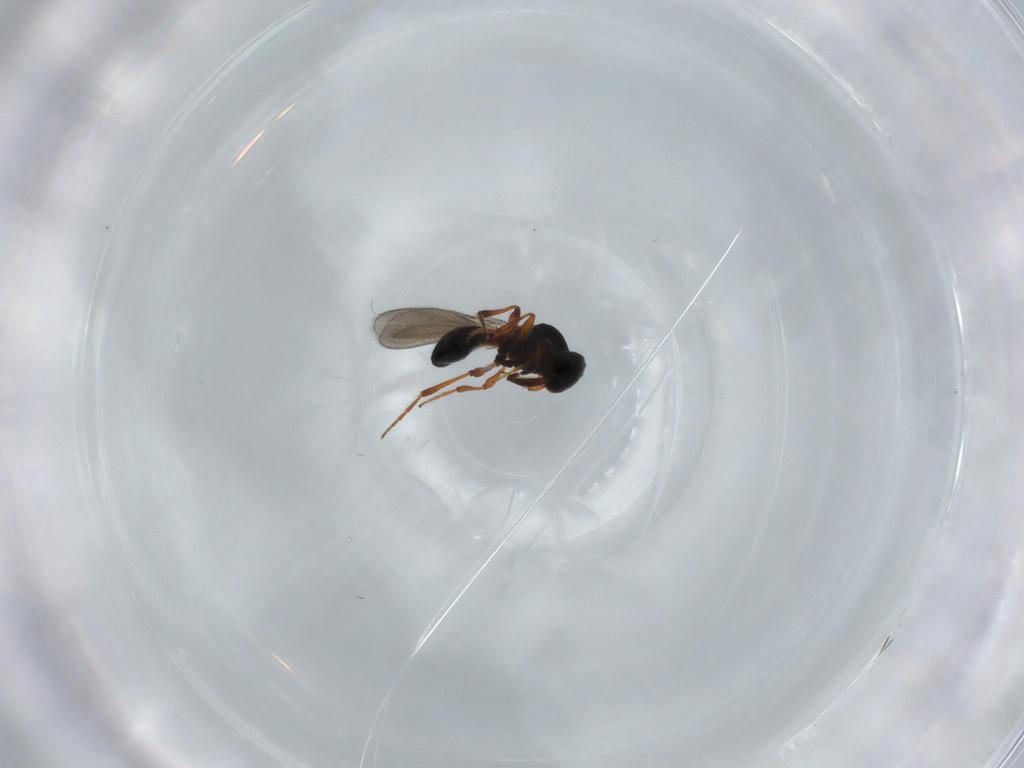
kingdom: Animalia
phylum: Arthropoda
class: Insecta
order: Hymenoptera
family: Platygastridae
